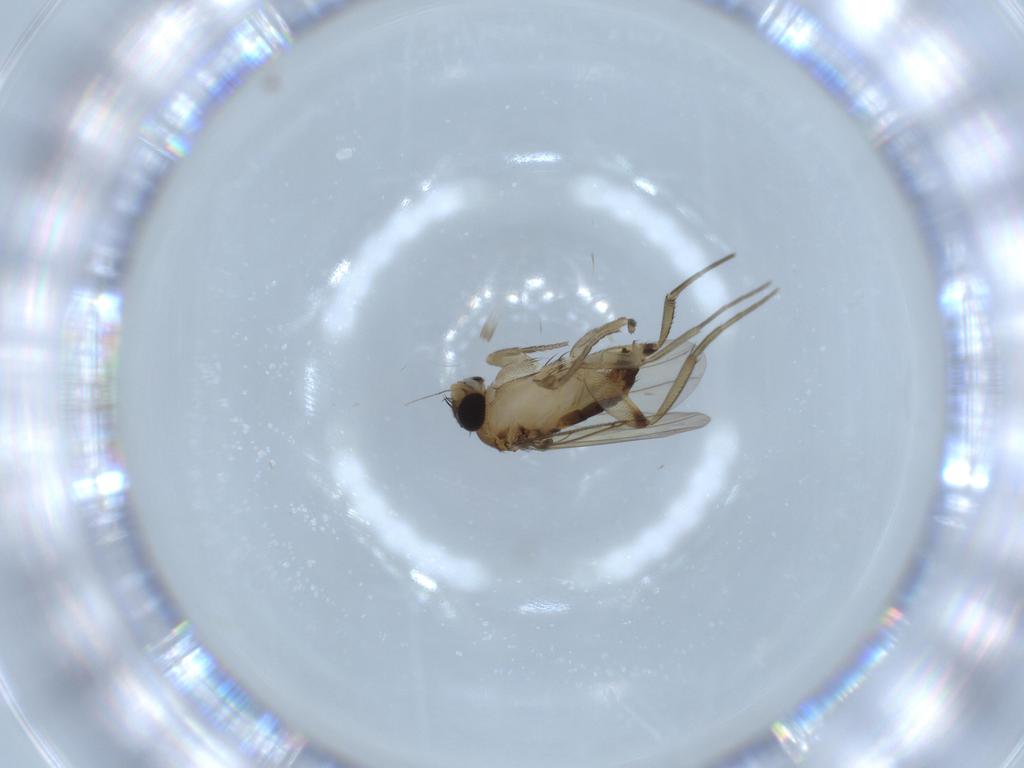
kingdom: Animalia
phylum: Arthropoda
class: Insecta
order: Diptera
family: Phoridae
